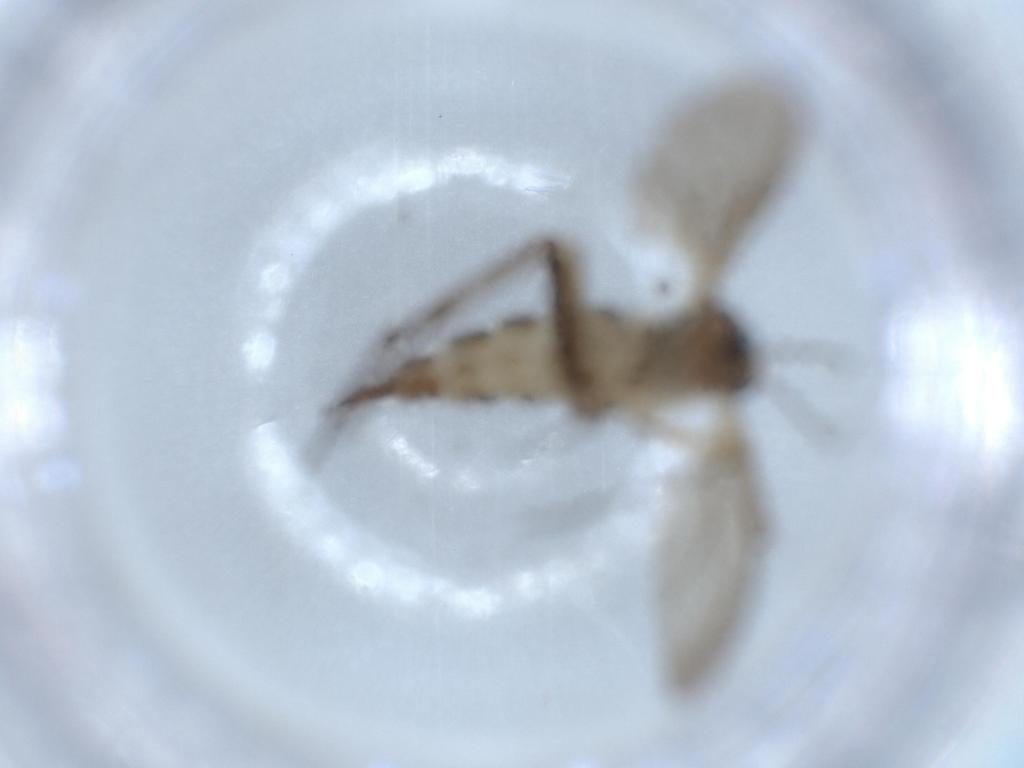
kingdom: Animalia
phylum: Arthropoda
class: Insecta
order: Diptera
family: Sciaridae
